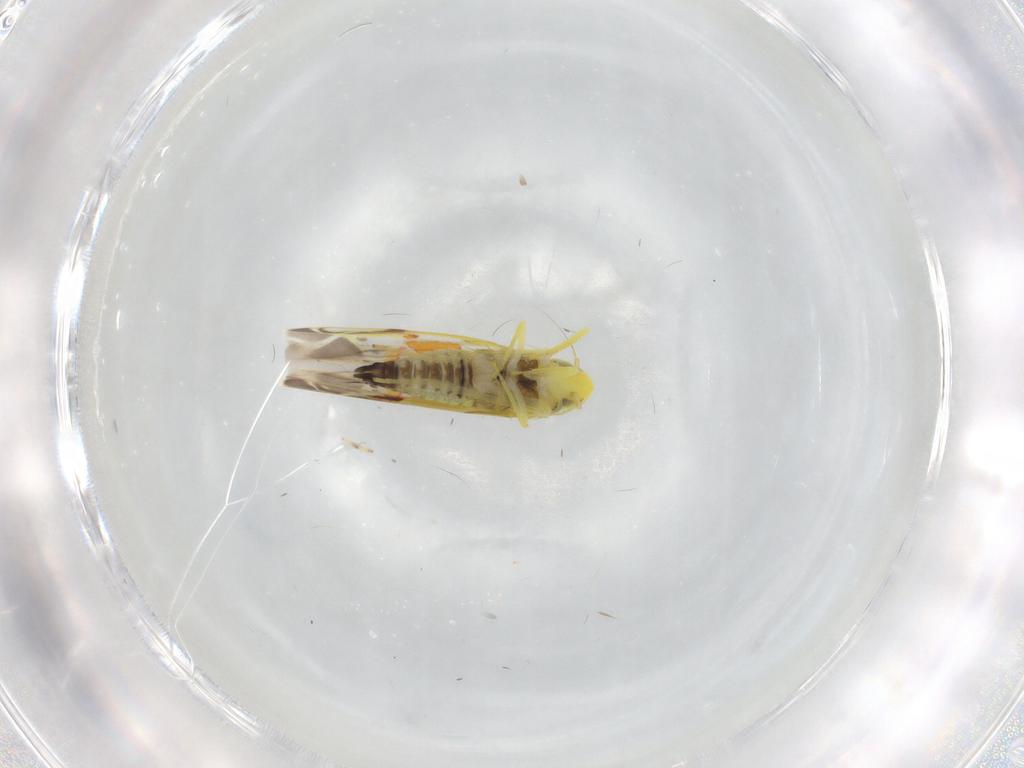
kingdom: Animalia
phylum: Arthropoda
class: Insecta
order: Hemiptera
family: Cicadellidae
